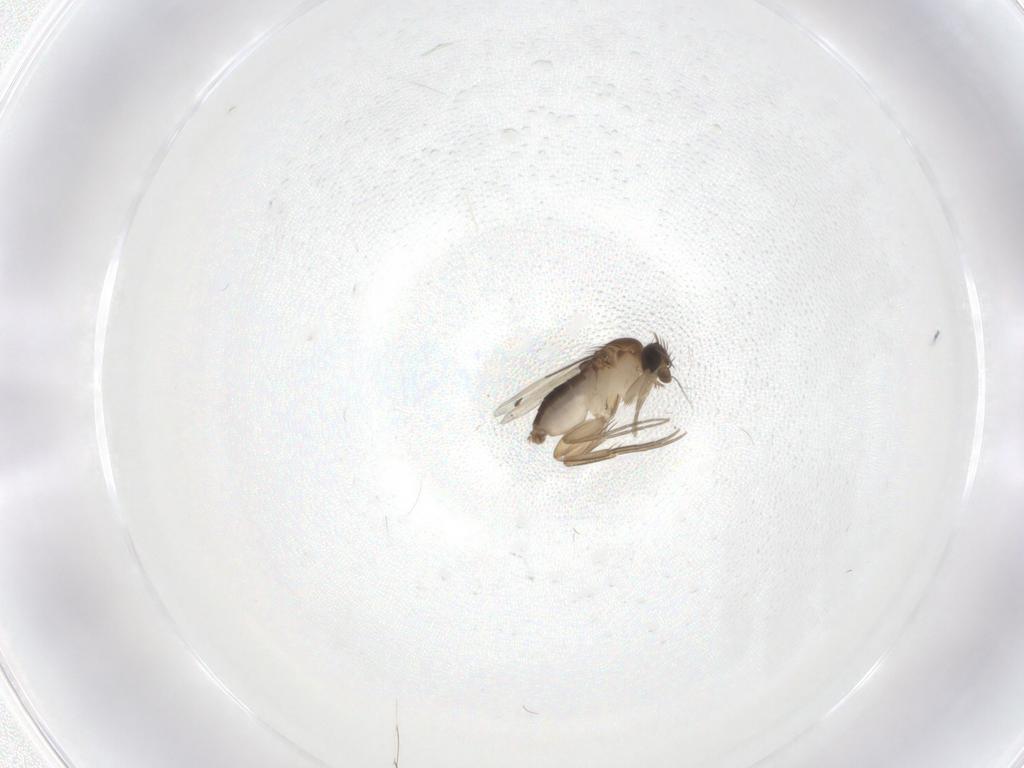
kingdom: Animalia
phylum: Arthropoda
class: Insecta
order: Diptera
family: Phoridae
